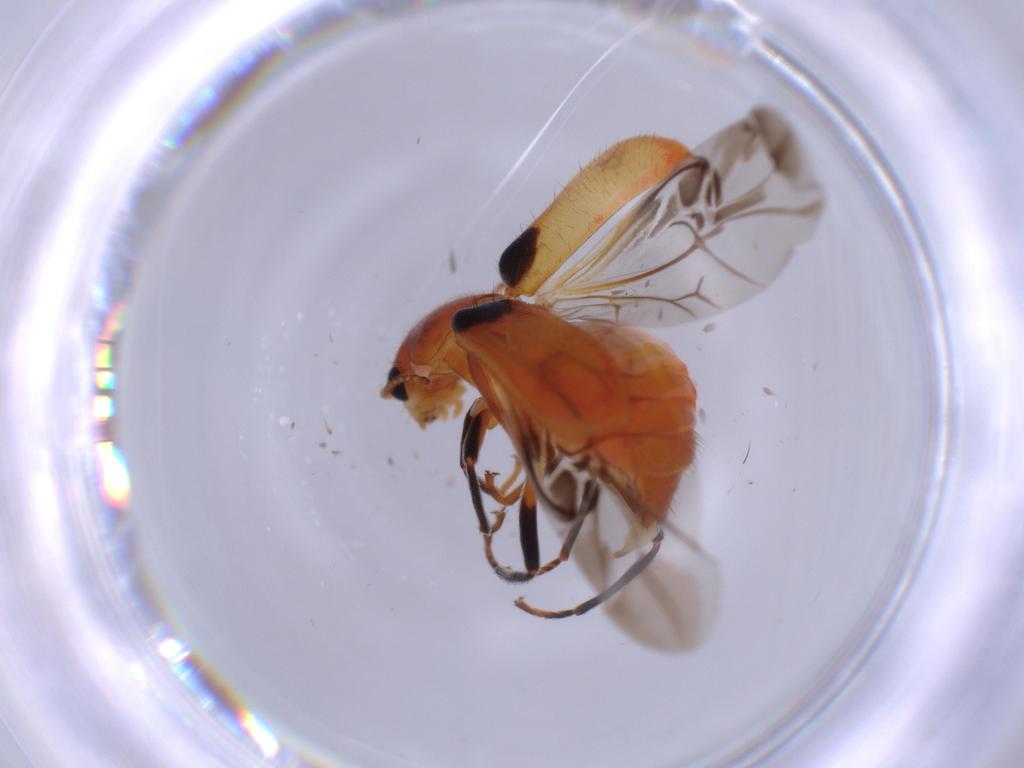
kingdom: Animalia
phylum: Arthropoda
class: Insecta
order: Coleoptera
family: Melyridae
